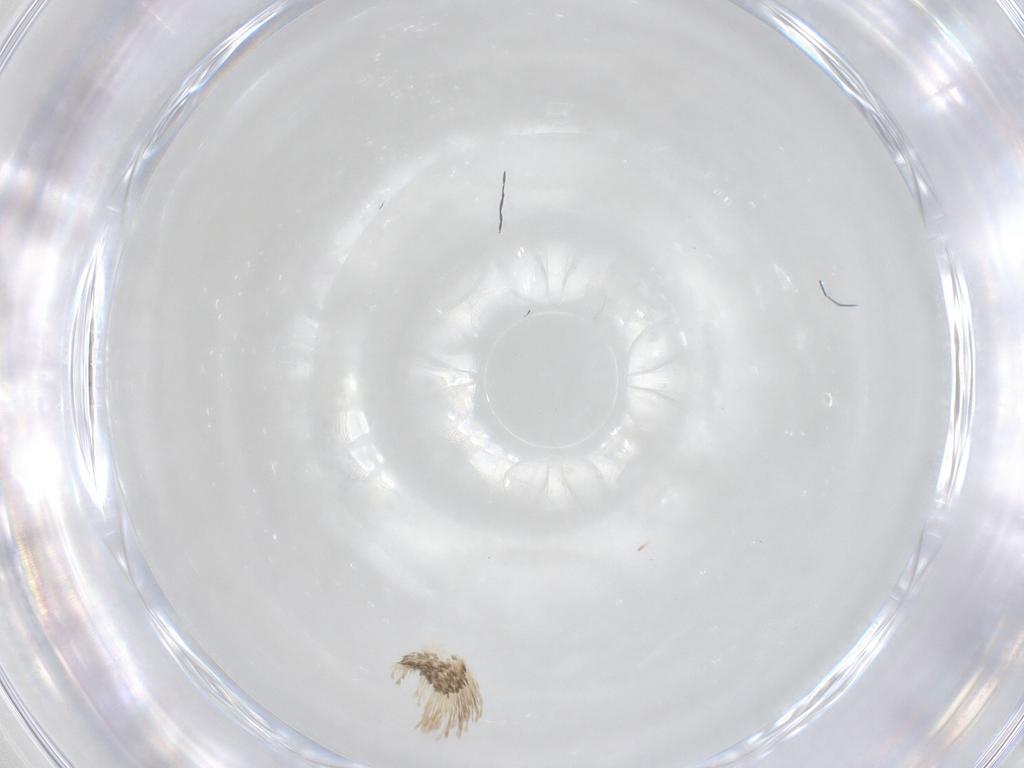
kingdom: Animalia
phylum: Arthropoda
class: Insecta
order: Lepidoptera
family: Lecithoceridae
